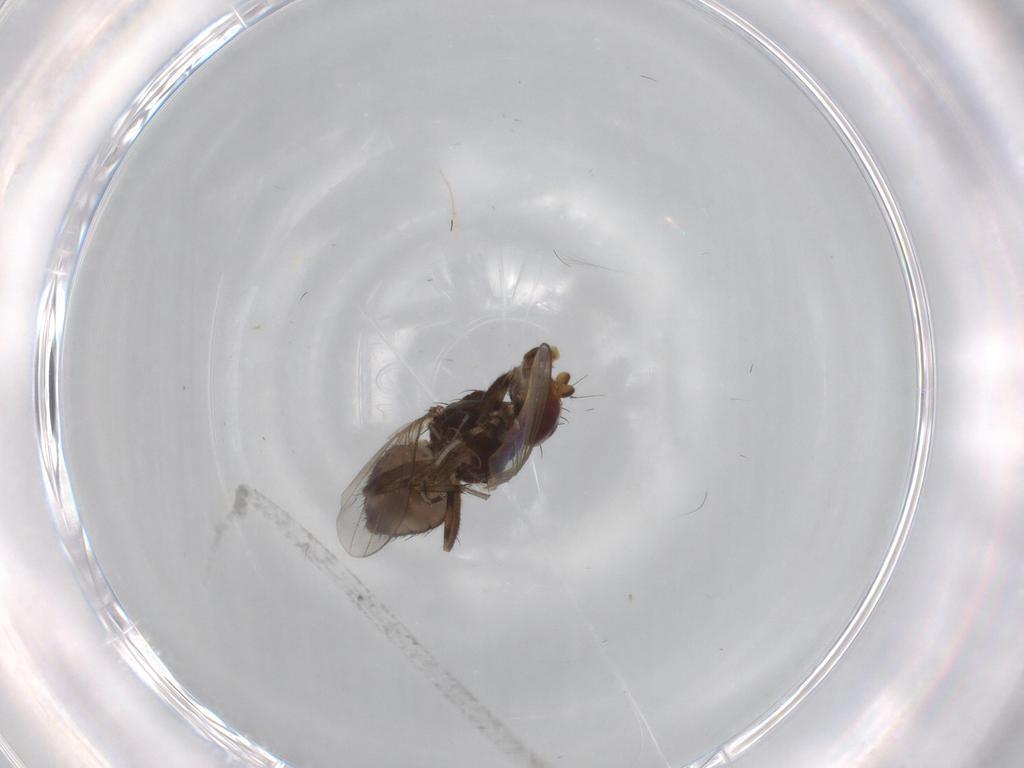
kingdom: Animalia
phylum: Arthropoda
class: Insecta
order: Diptera
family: Heleomyzidae
